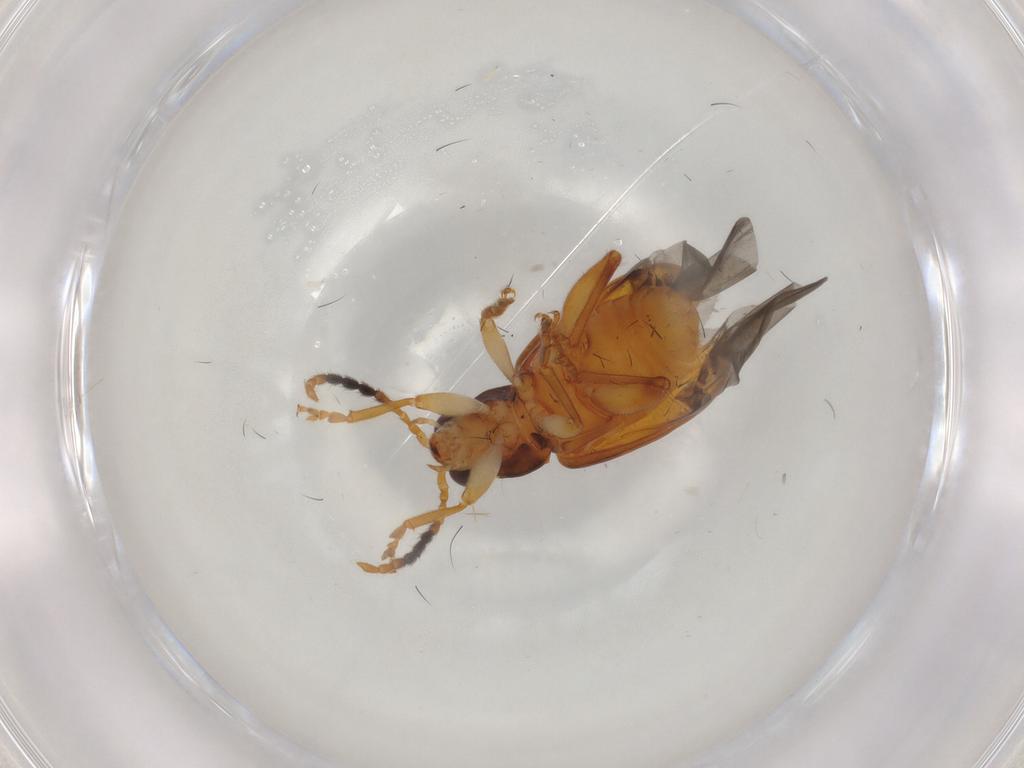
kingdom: Animalia
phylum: Arthropoda
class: Insecta
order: Coleoptera
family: Chrysomelidae
